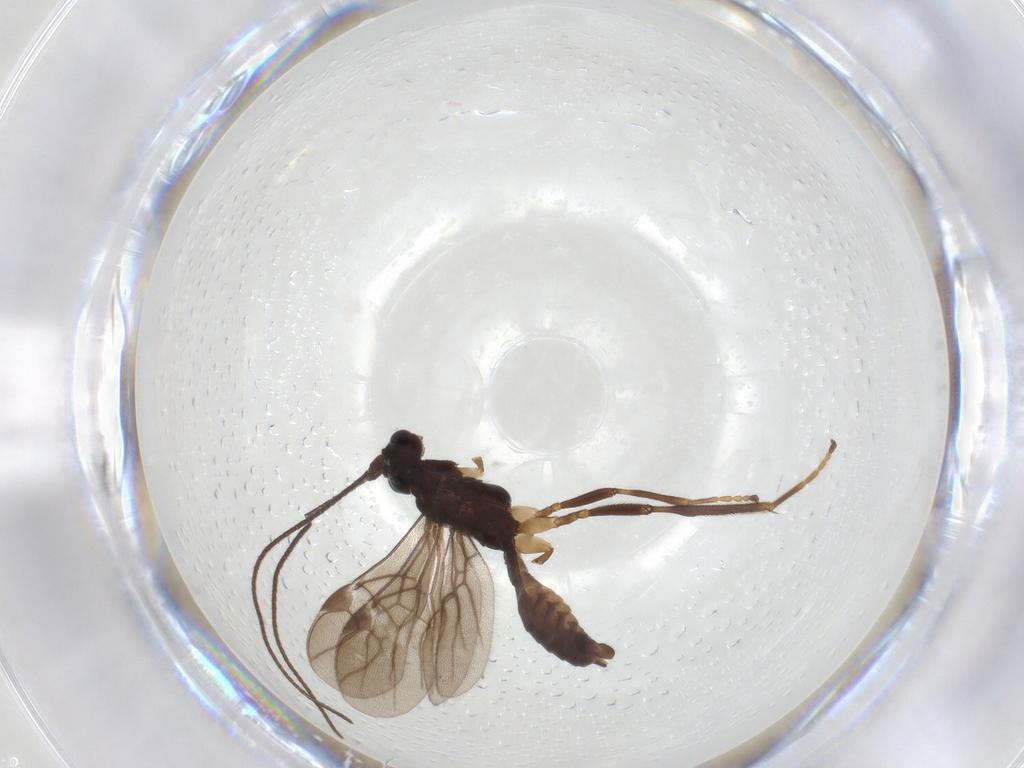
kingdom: Animalia
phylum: Arthropoda
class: Insecta
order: Hymenoptera
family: Braconidae
